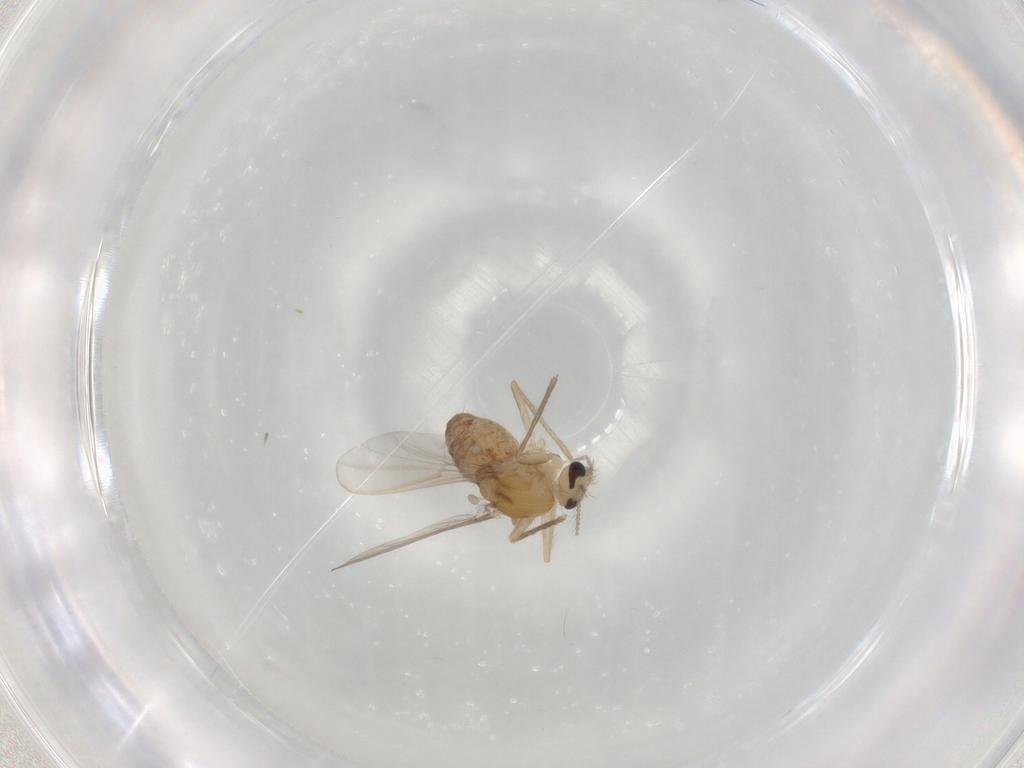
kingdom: Animalia
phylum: Arthropoda
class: Insecta
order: Diptera
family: Chironomidae
